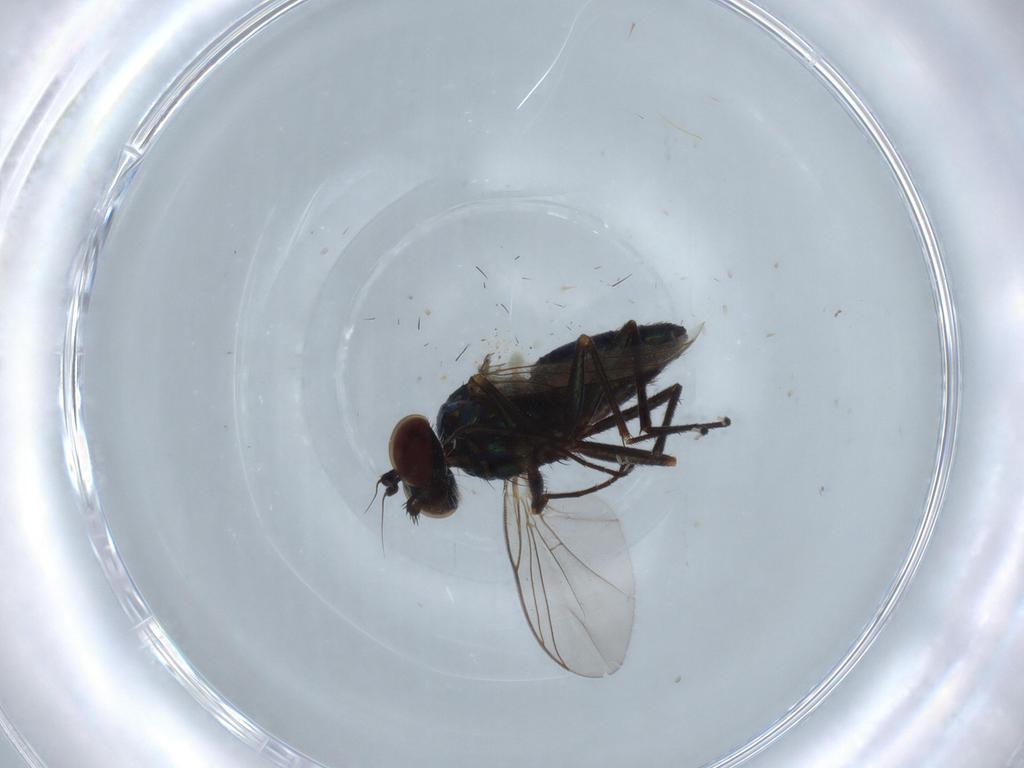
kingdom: Animalia
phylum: Arthropoda
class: Insecta
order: Diptera
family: Dolichopodidae
